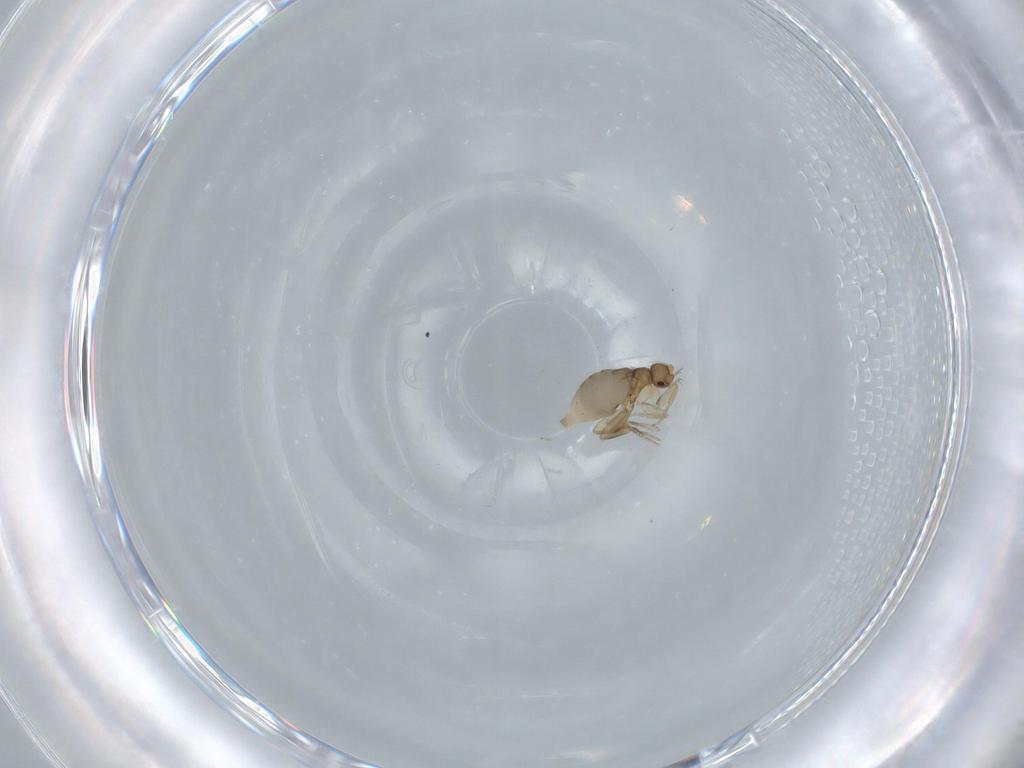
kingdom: Animalia
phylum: Arthropoda
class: Insecta
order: Diptera
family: Phoridae
